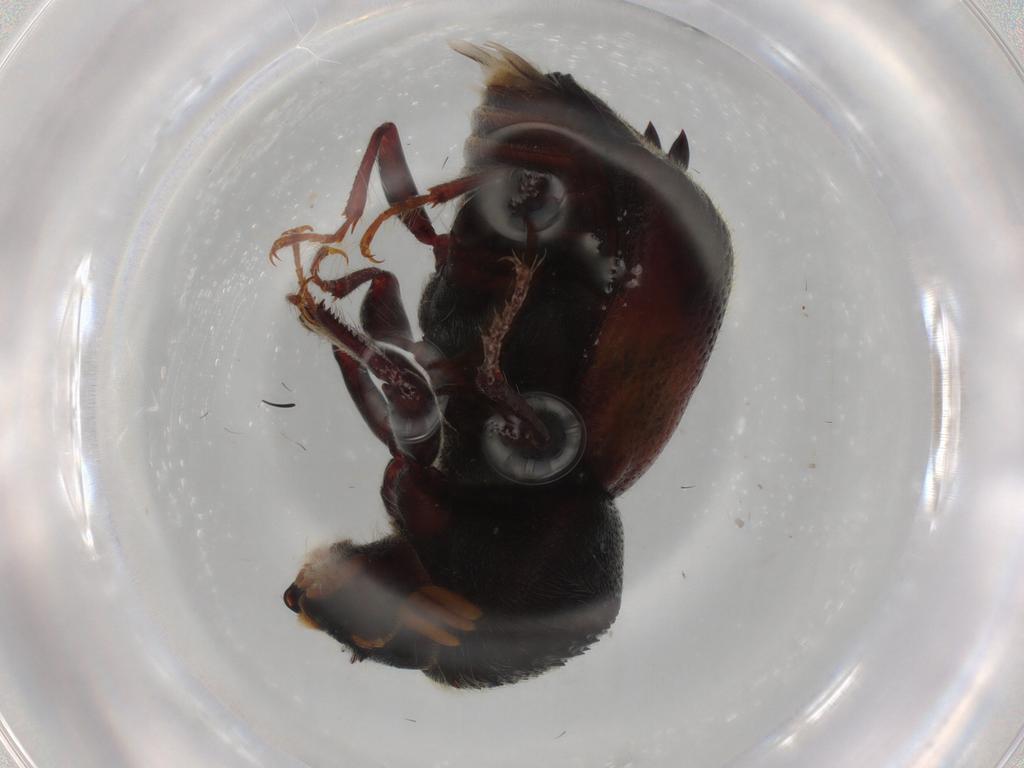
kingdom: Animalia
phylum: Arthropoda
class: Insecta
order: Coleoptera
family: Bostrichidae
